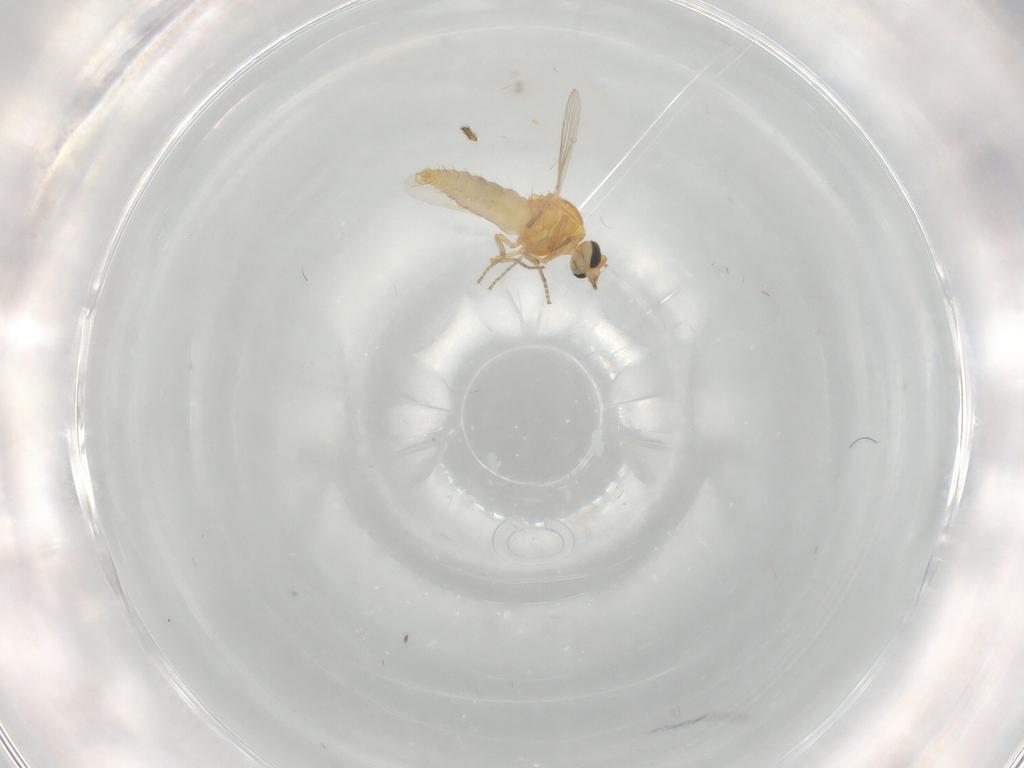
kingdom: Animalia
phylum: Arthropoda
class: Insecta
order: Diptera
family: Ceratopogonidae
